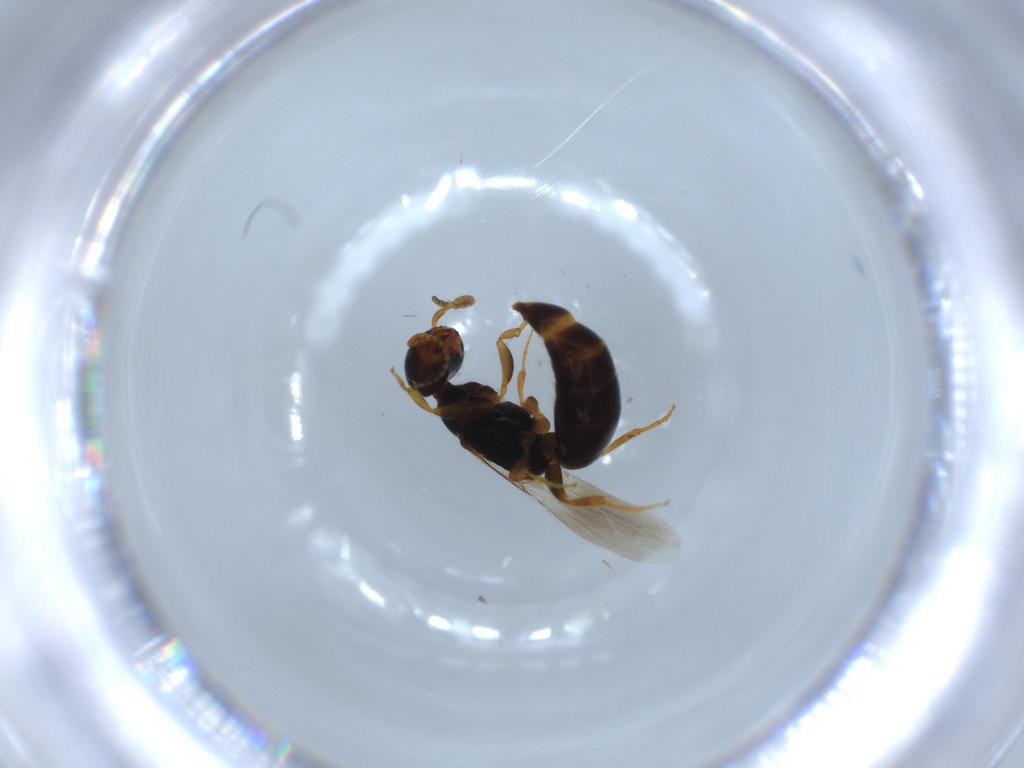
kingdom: Animalia
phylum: Arthropoda
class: Insecta
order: Hymenoptera
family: Bethylidae
